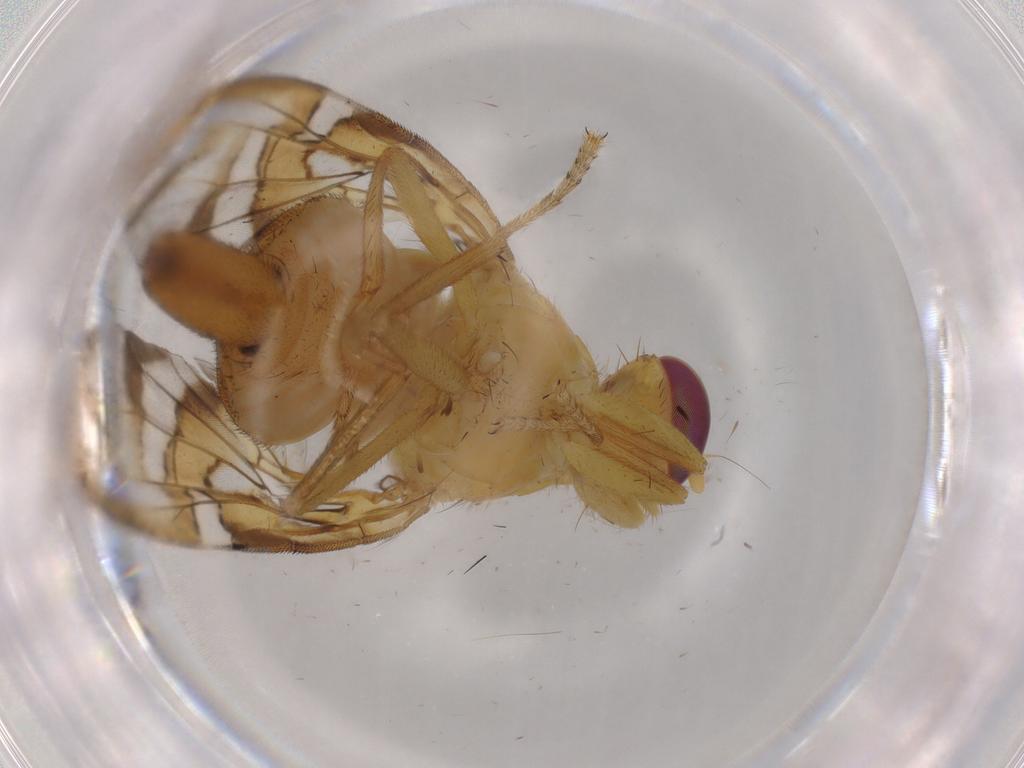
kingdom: Animalia
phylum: Arthropoda
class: Insecta
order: Diptera
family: Tephritidae
